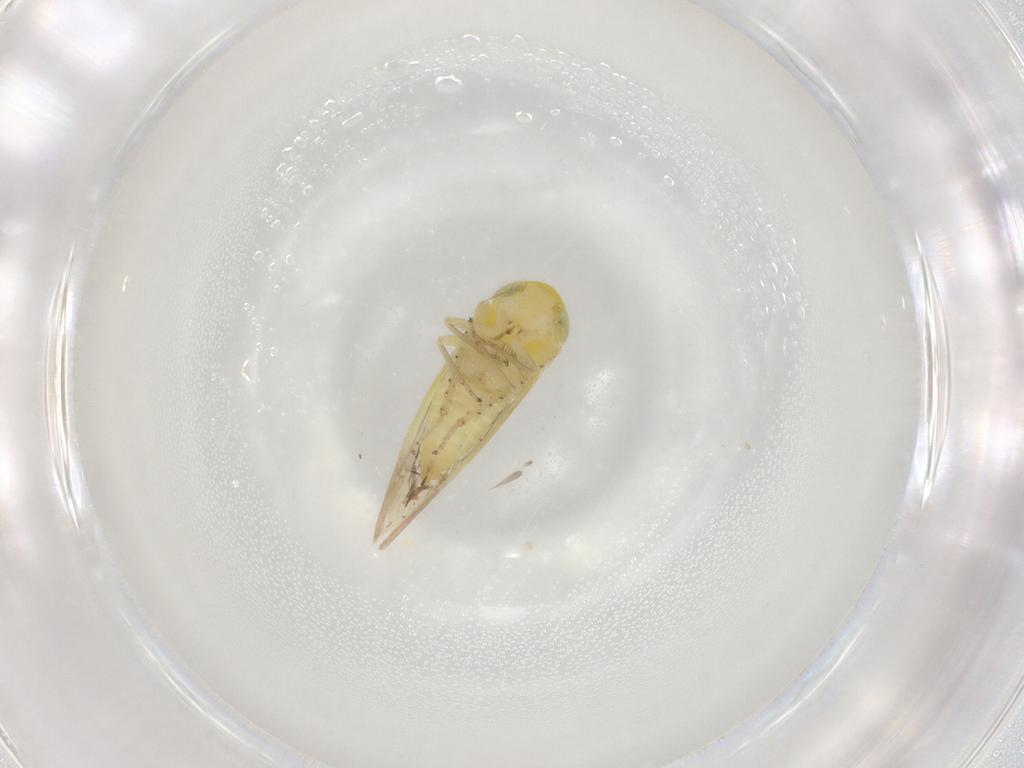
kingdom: Animalia
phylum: Arthropoda
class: Insecta
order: Hemiptera
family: Cicadellidae
